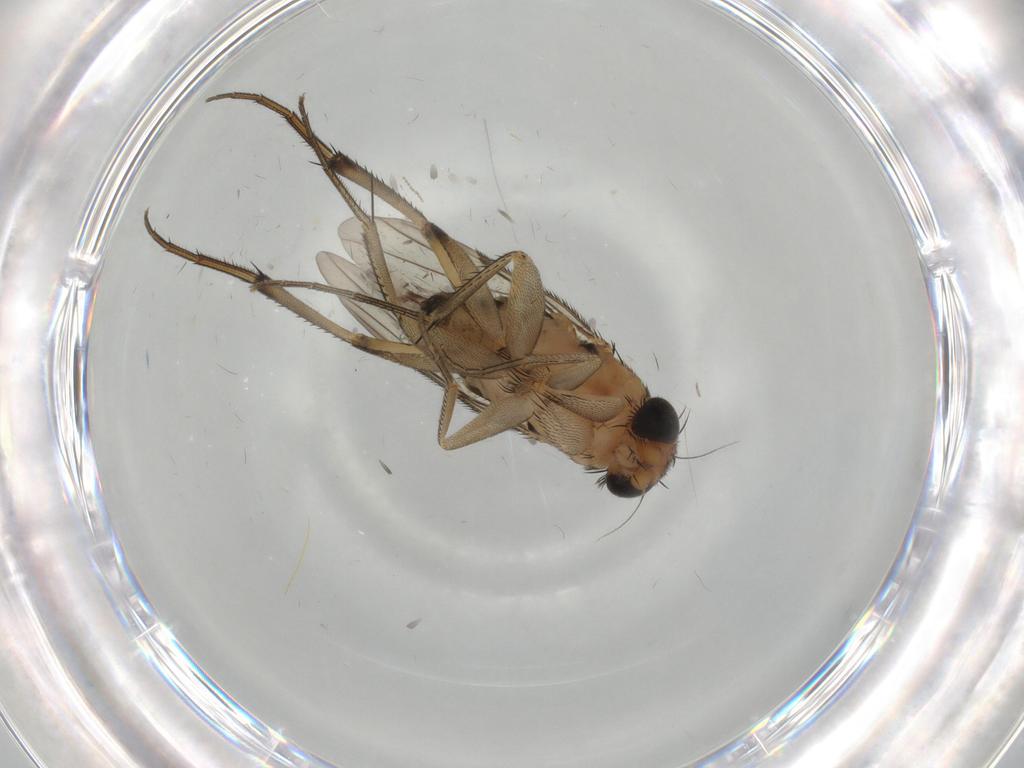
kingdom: Animalia
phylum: Arthropoda
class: Insecta
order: Diptera
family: Phoridae
